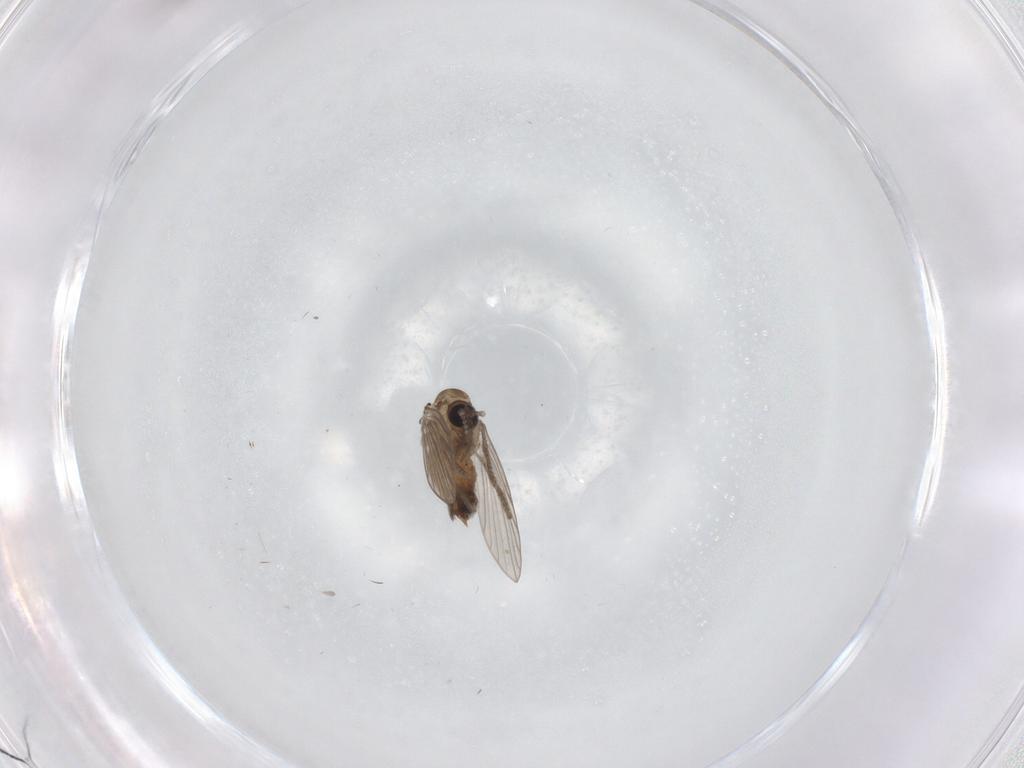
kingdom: Animalia
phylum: Arthropoda
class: Insecta
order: Diptera
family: Psychodidae
